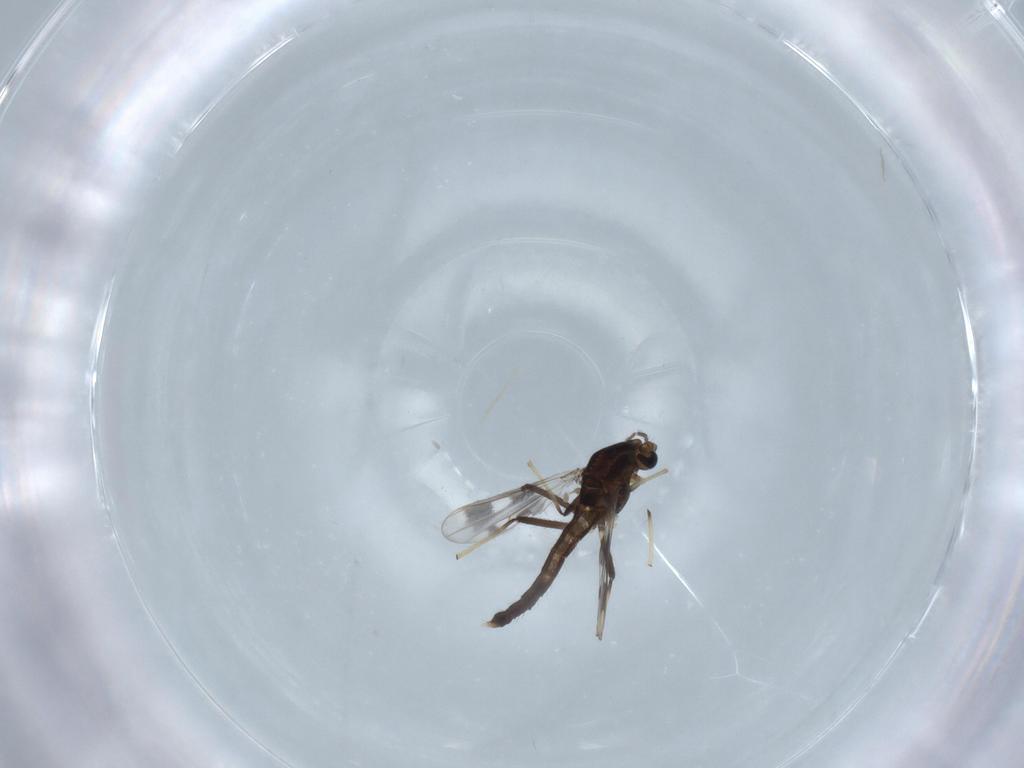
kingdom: Animalia
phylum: Arthropoda
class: Insecta
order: Diptera
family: Chironomidae
